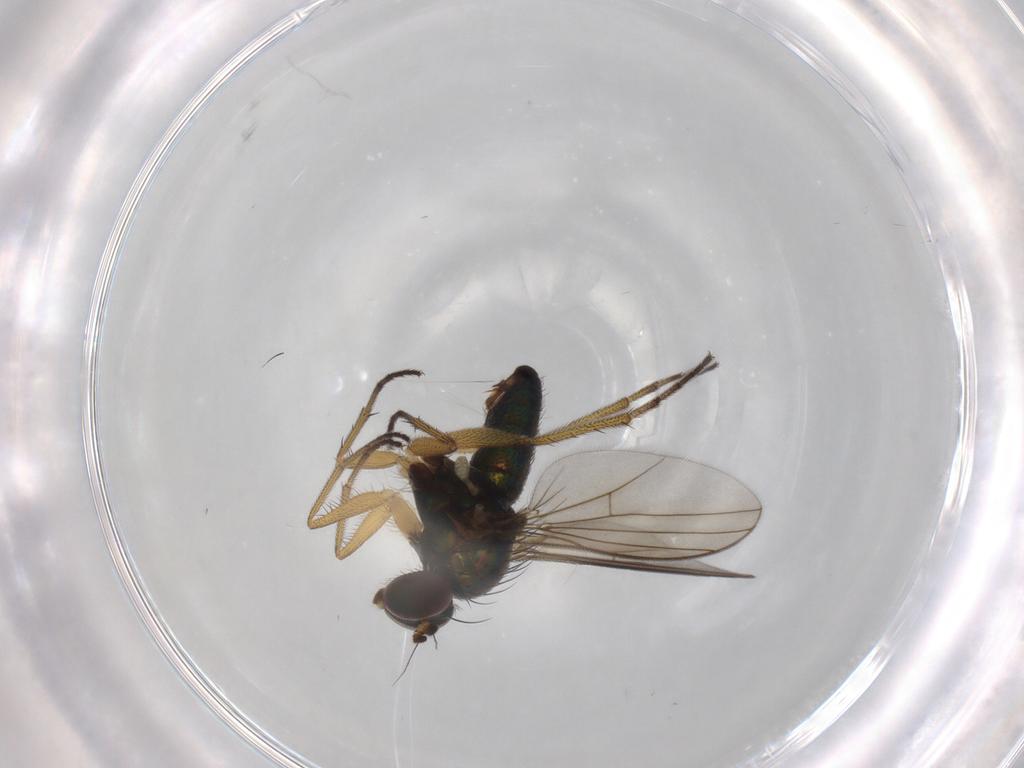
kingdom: Animalia
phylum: Arthropoda
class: Insecta
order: Diptera
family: Dolichopodidae
